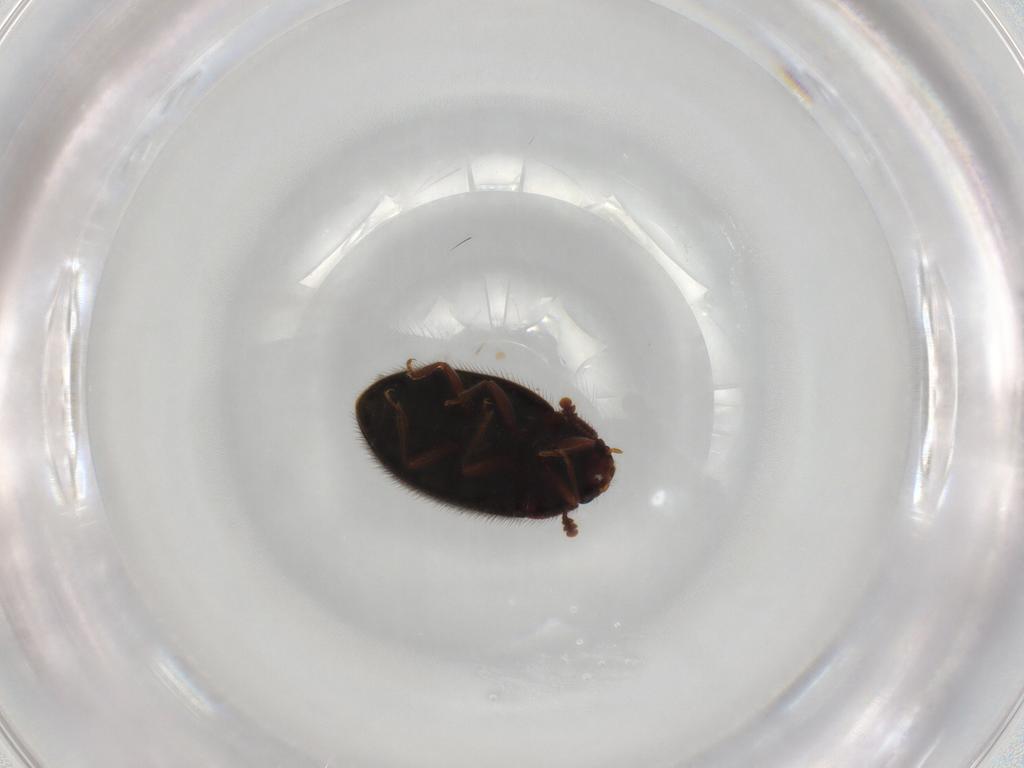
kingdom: Animalia
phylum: Arthropoda
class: Insecta
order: Coleoptera
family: Biphyllidae
